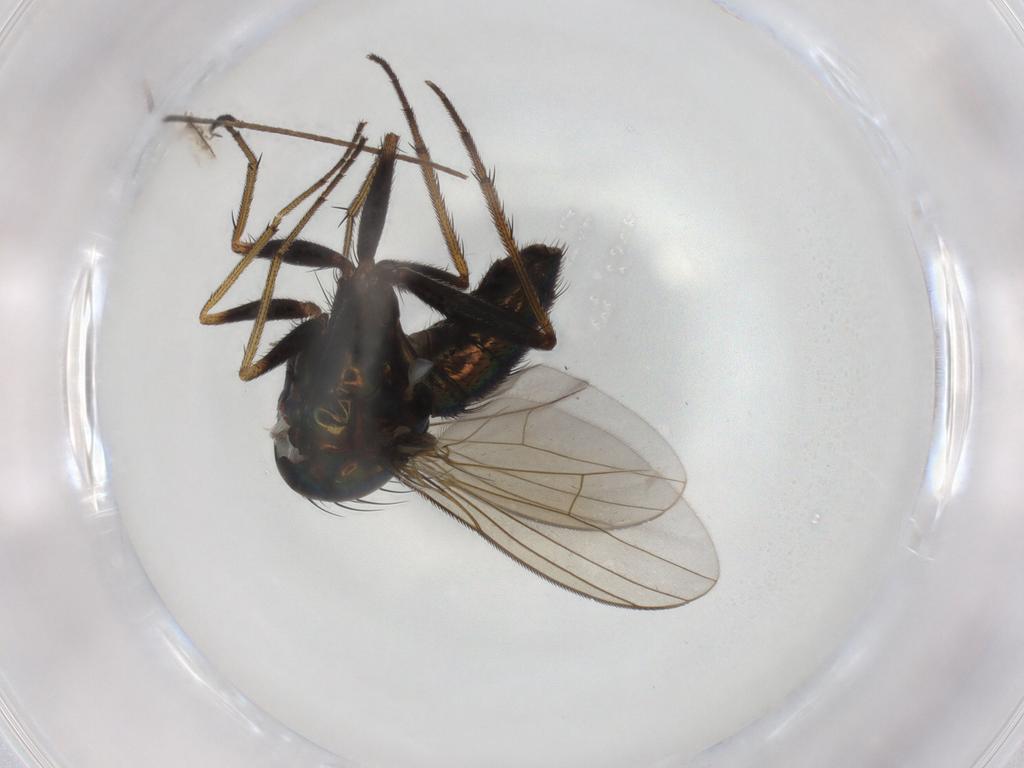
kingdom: Animalia
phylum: Arthropoda
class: Insecta
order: Diptera
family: Dolichopodidae
